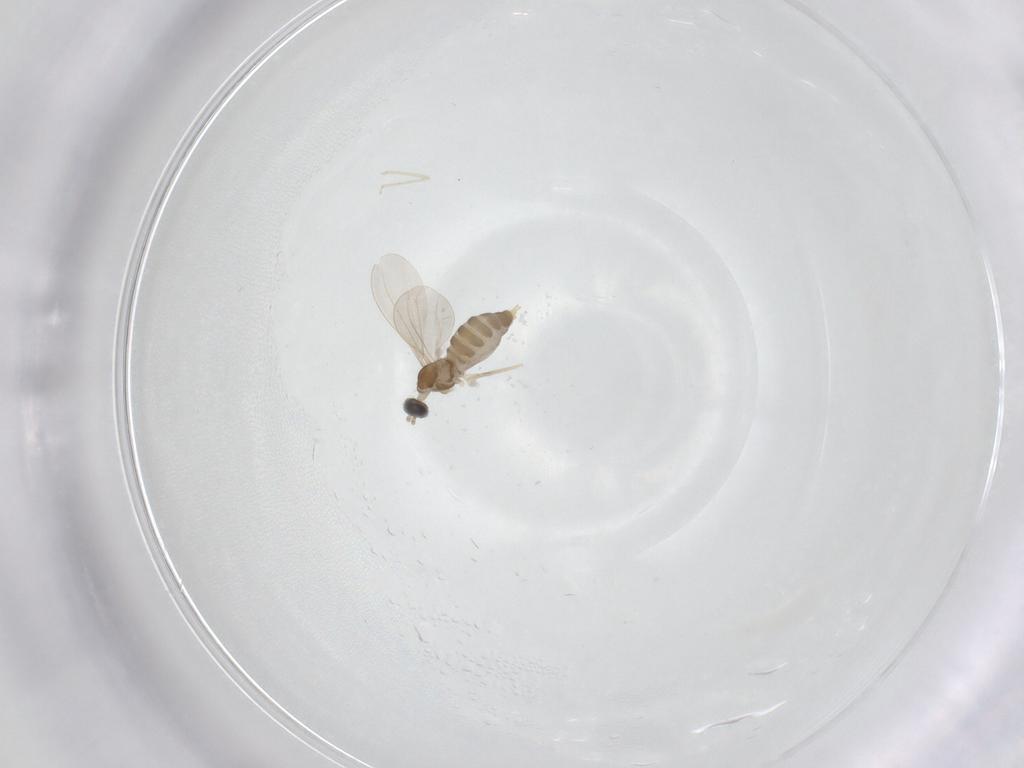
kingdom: Animalia
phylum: Arthropoda
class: Insecta
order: Diptera
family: Cecidomyiidae
